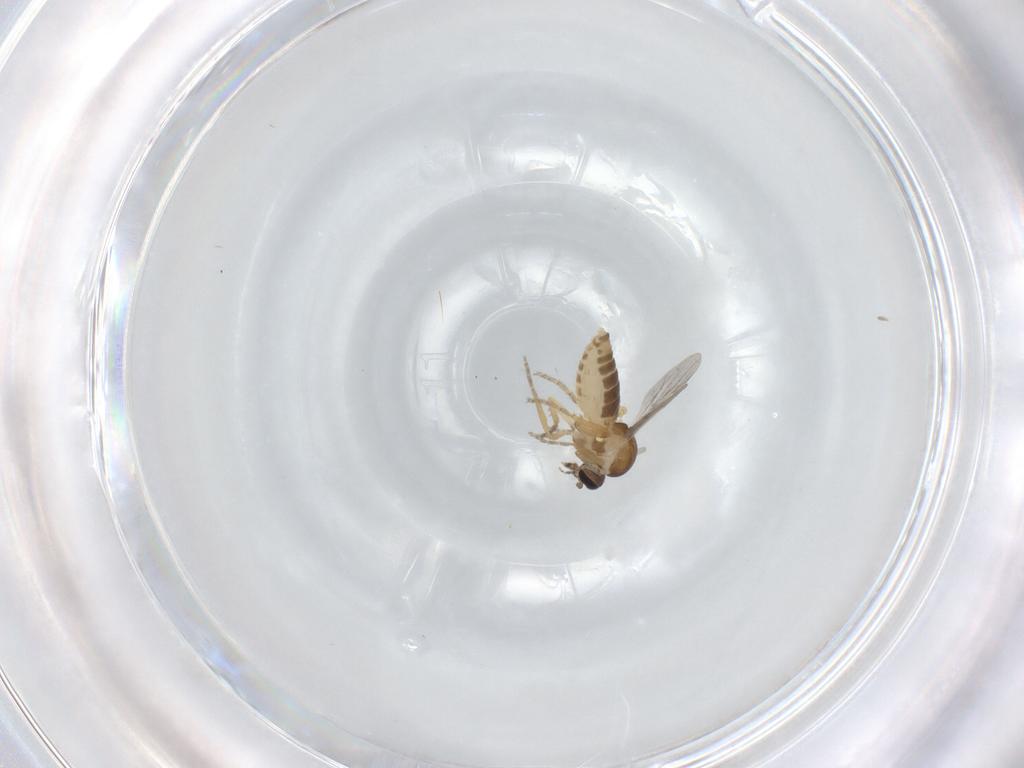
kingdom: Animalia
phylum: Arthropoda
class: Insecta
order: Diptera
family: Ceratopogonidae
